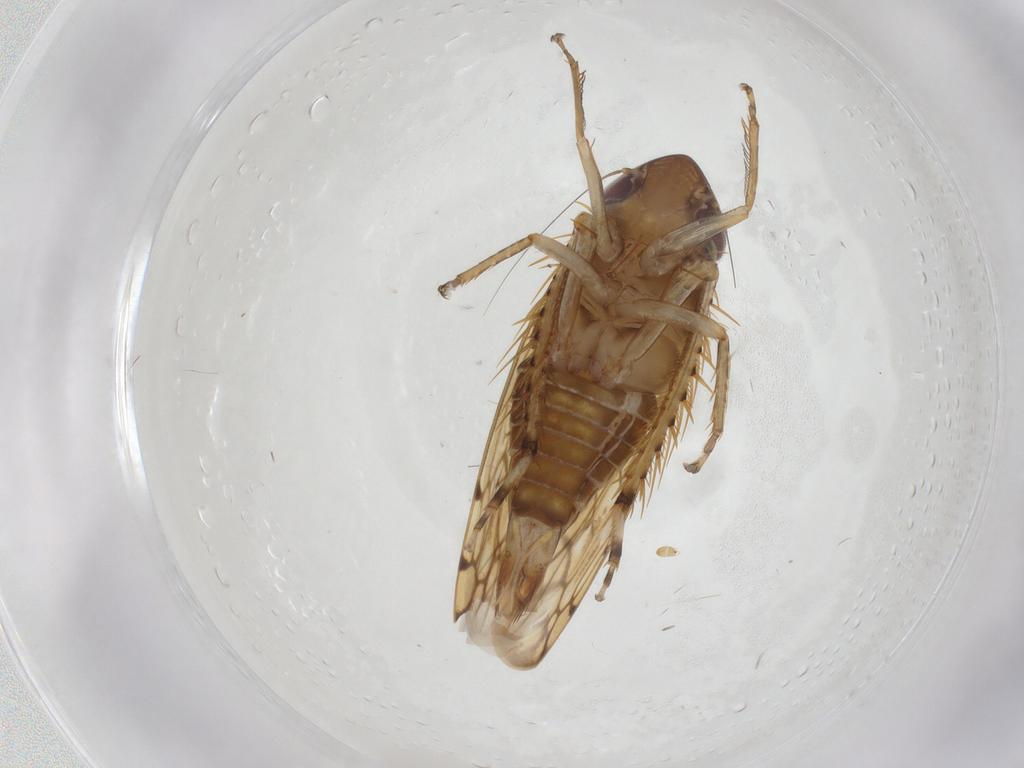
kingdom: Animalia
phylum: Arthropoda
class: Insecta
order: Hemiptera
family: Cicadellidae
